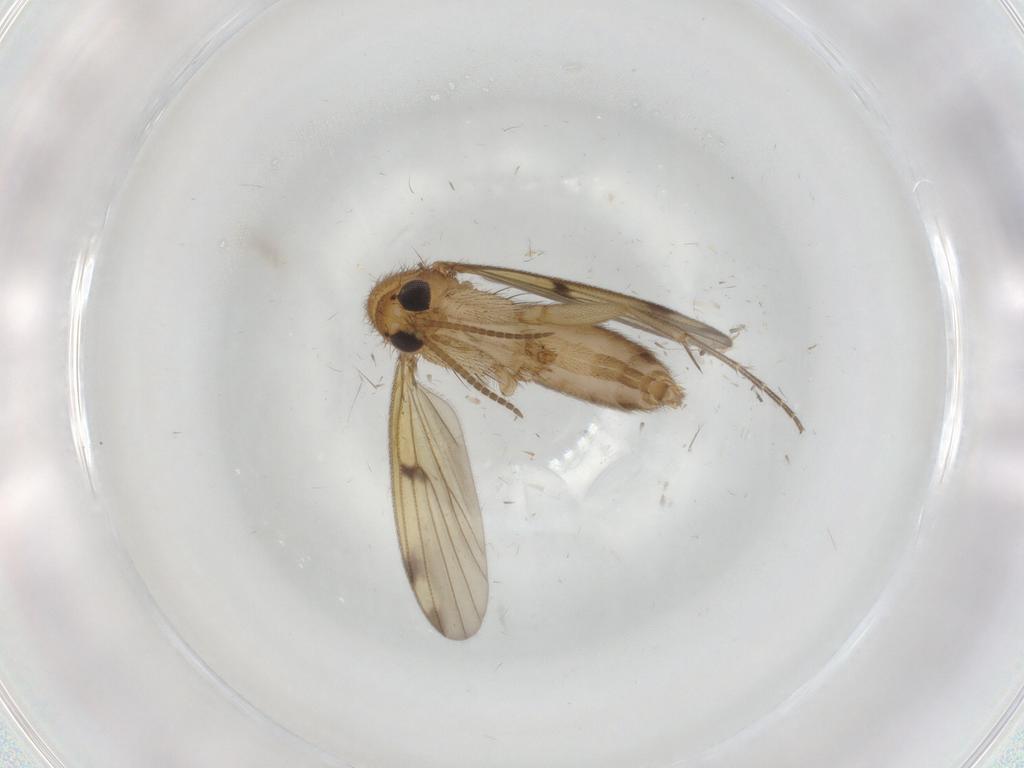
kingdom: Animalia
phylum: Arthropoda
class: Insecta
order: Diptera
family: Mycetophilidae
